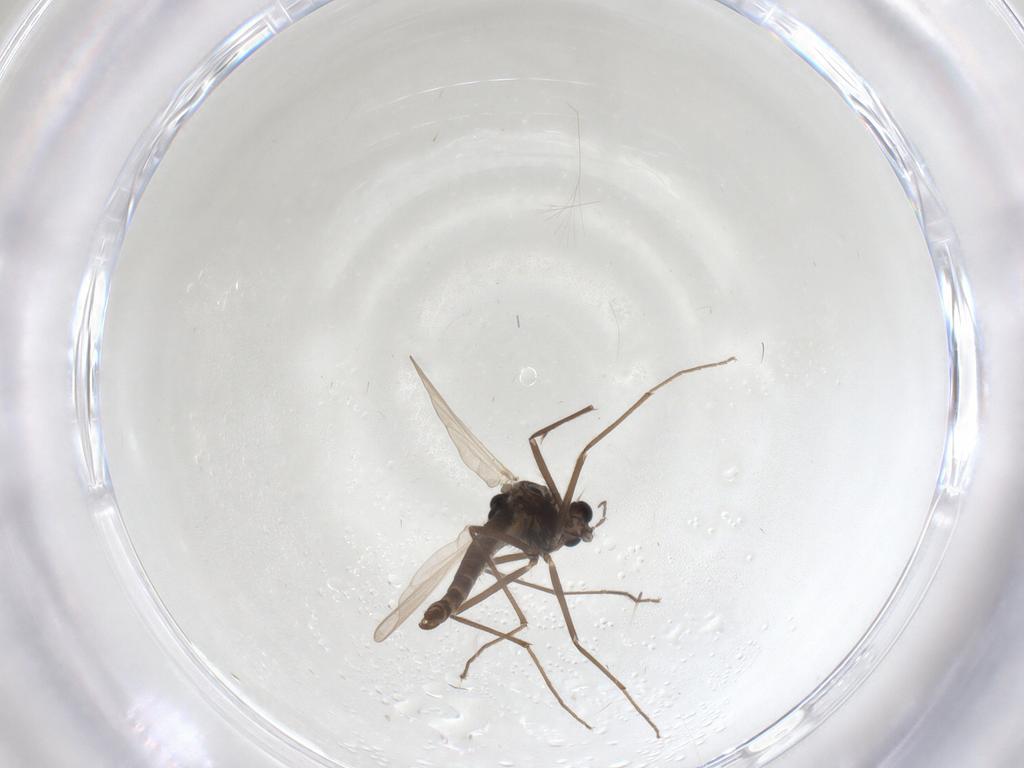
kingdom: Animalia
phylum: Arthropoda
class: Insecta
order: Diptera
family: Chironomidae
